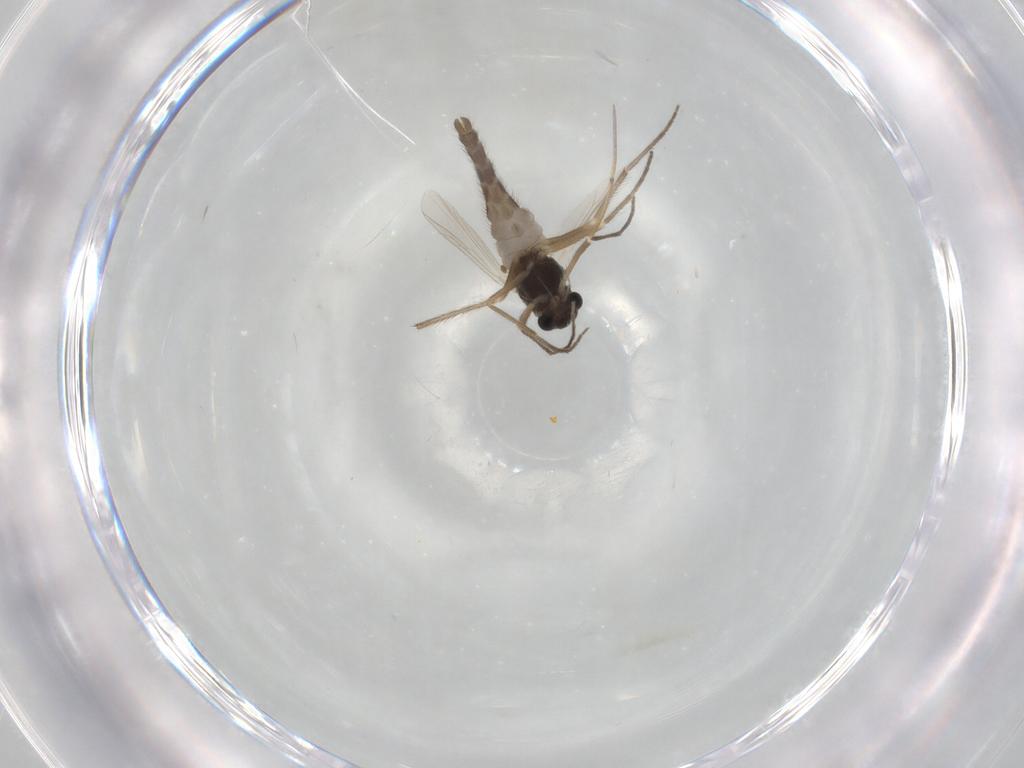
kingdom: Animalia
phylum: Arthropoda
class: Insecta
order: Diptera
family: Chironomidae
